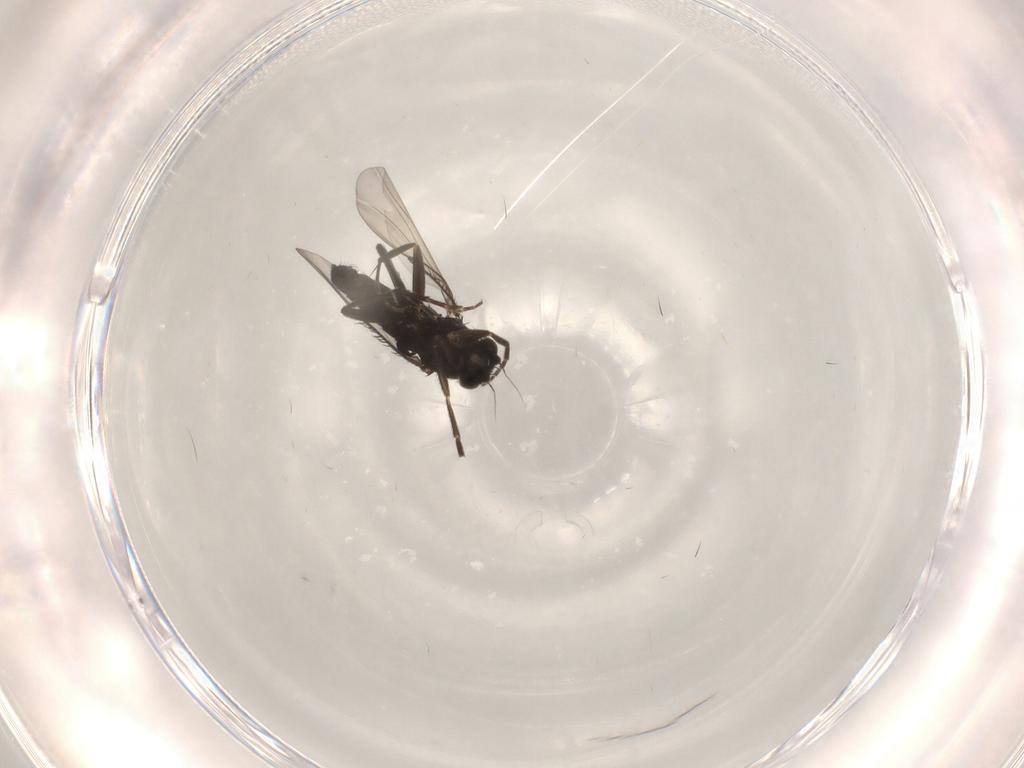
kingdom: Animalia
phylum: Arthropoda
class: Insecta
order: Diptera
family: Phoridae
